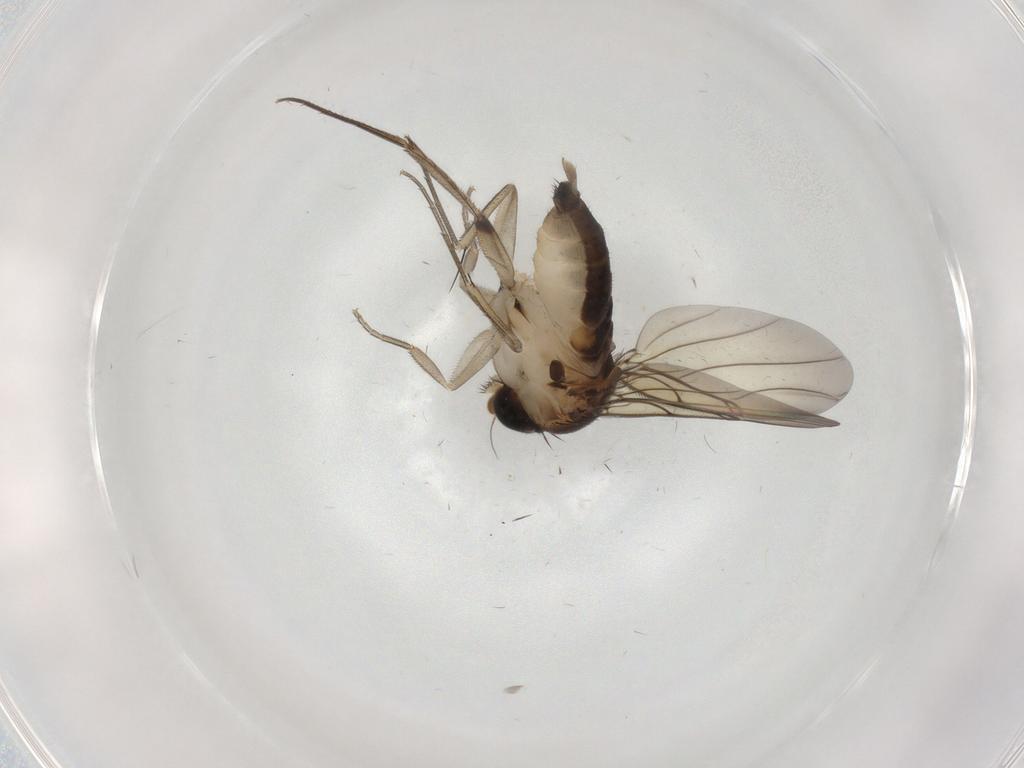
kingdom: Animalia
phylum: Arthropoda
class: Insecta
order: Diptera
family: Phoridae
